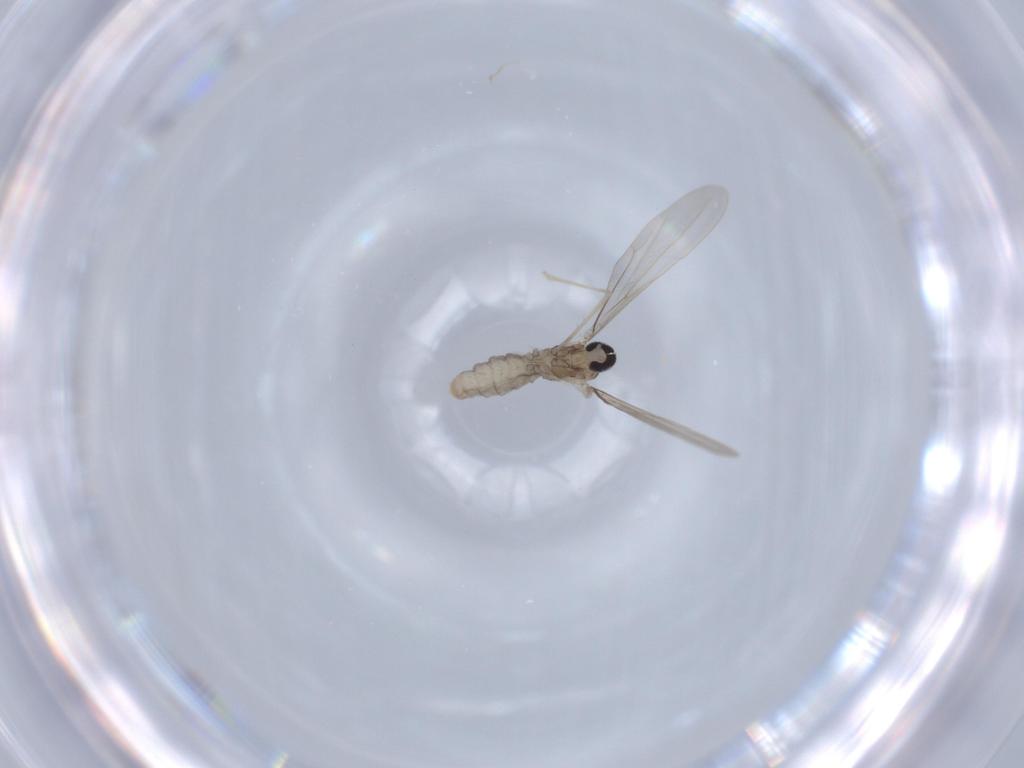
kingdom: Animalia
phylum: Arthropoda
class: Insecta
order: Diptera
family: Cecidomyiidae
